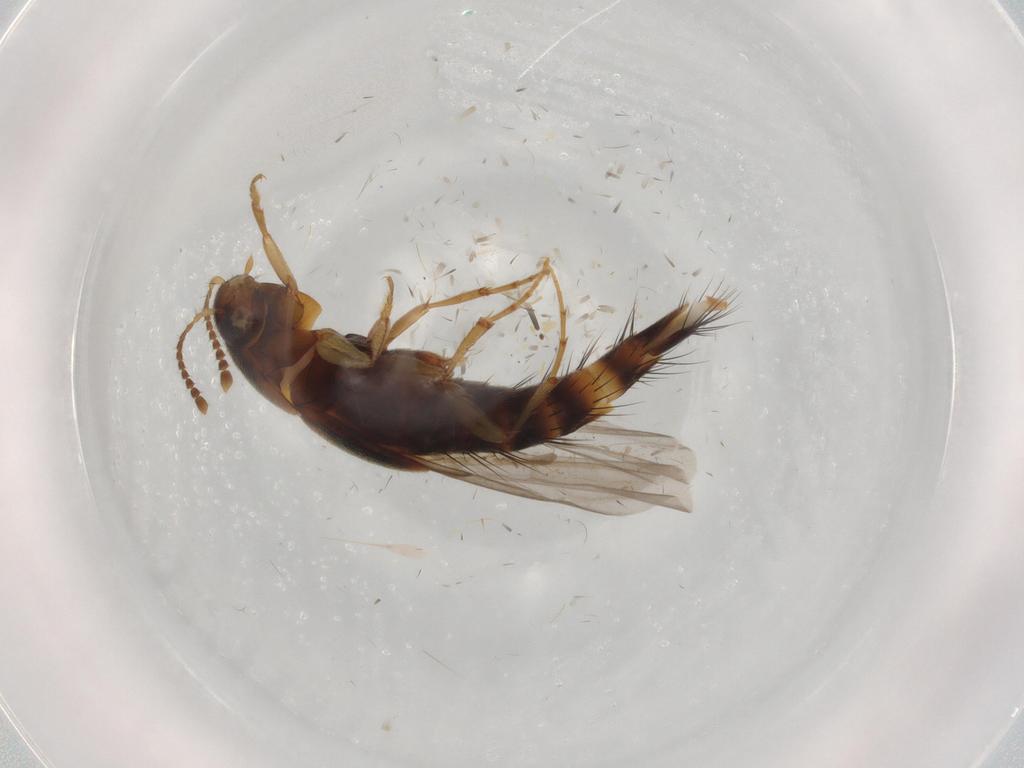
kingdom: Animalia
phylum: Arthropoda
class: Insecta
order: Coleoptera
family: Staphylinidae
